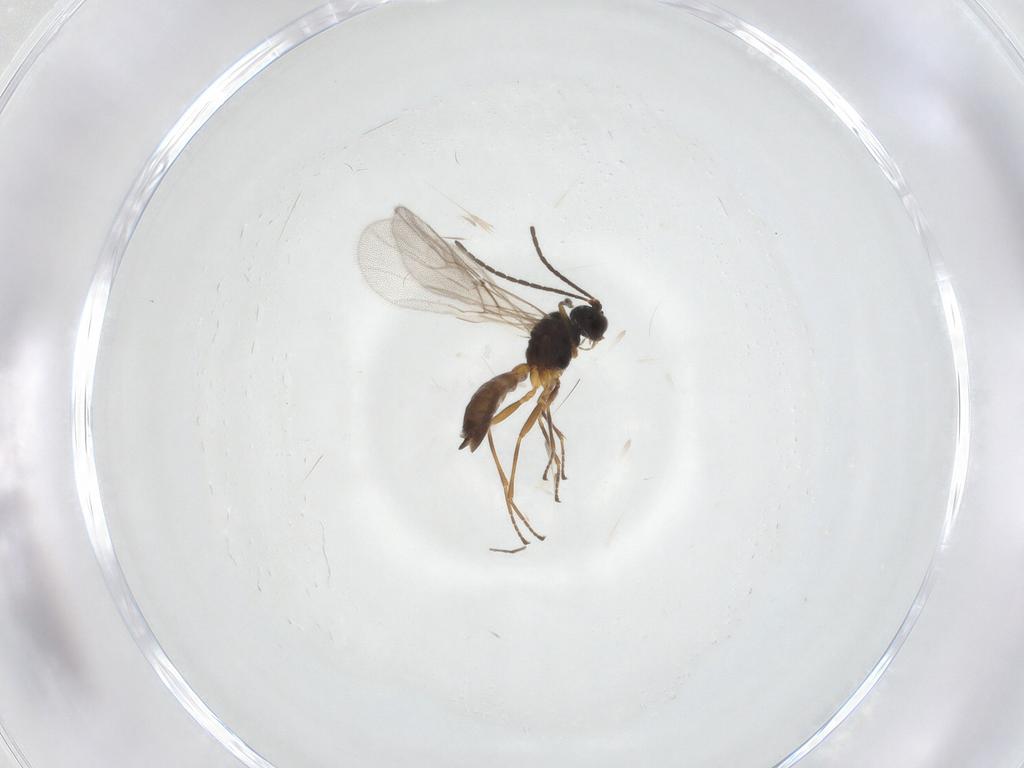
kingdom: Animalia
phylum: Arthropoda
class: Insecta
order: Hymenoptera
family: Braconidae
